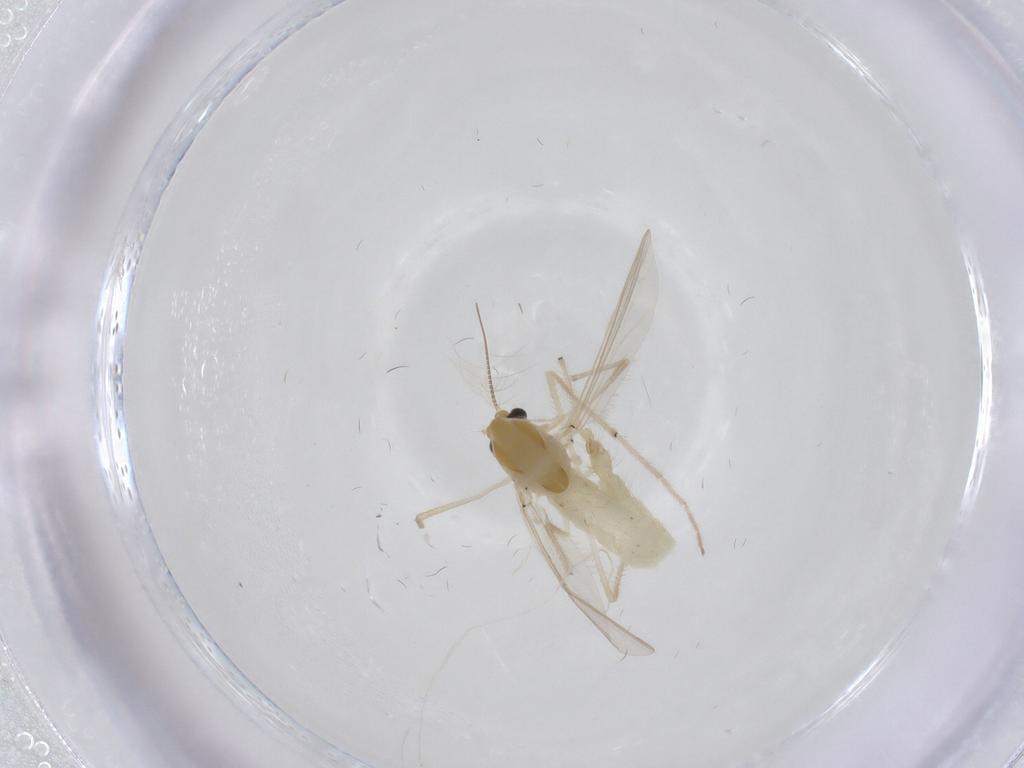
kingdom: Animalia
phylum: Arthropoda
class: Insecta
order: Diptera
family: Chironomidae
